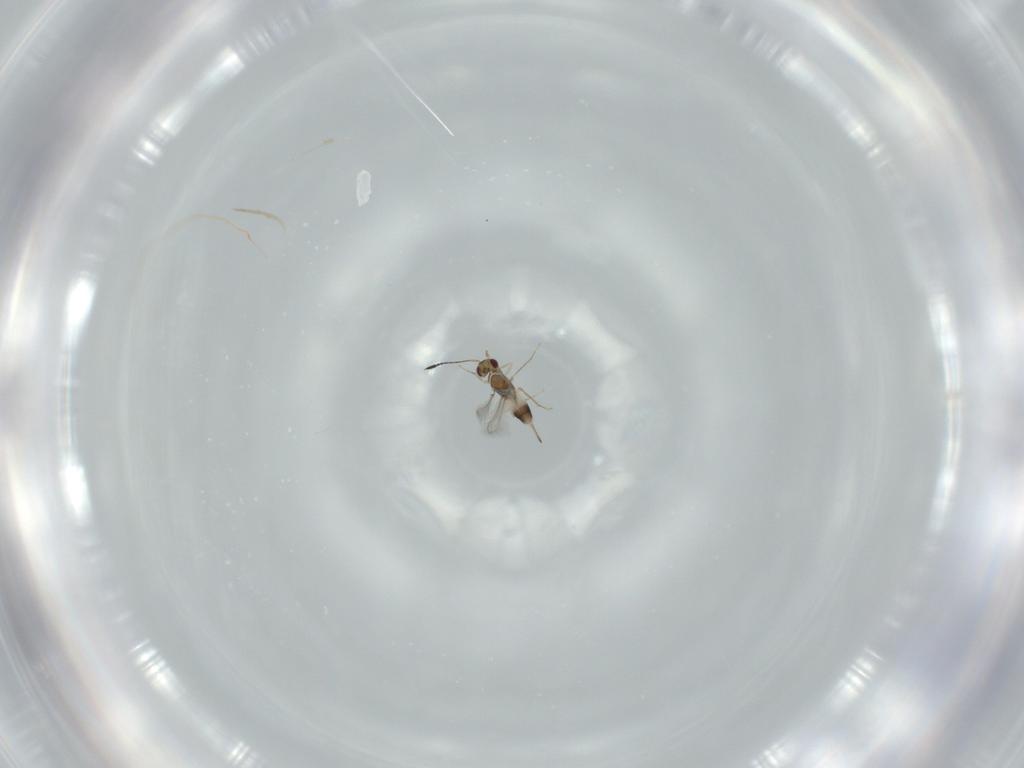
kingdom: Animalia
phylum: Arthropoda
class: Insecta
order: Hymenoptera
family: Mymaridae
